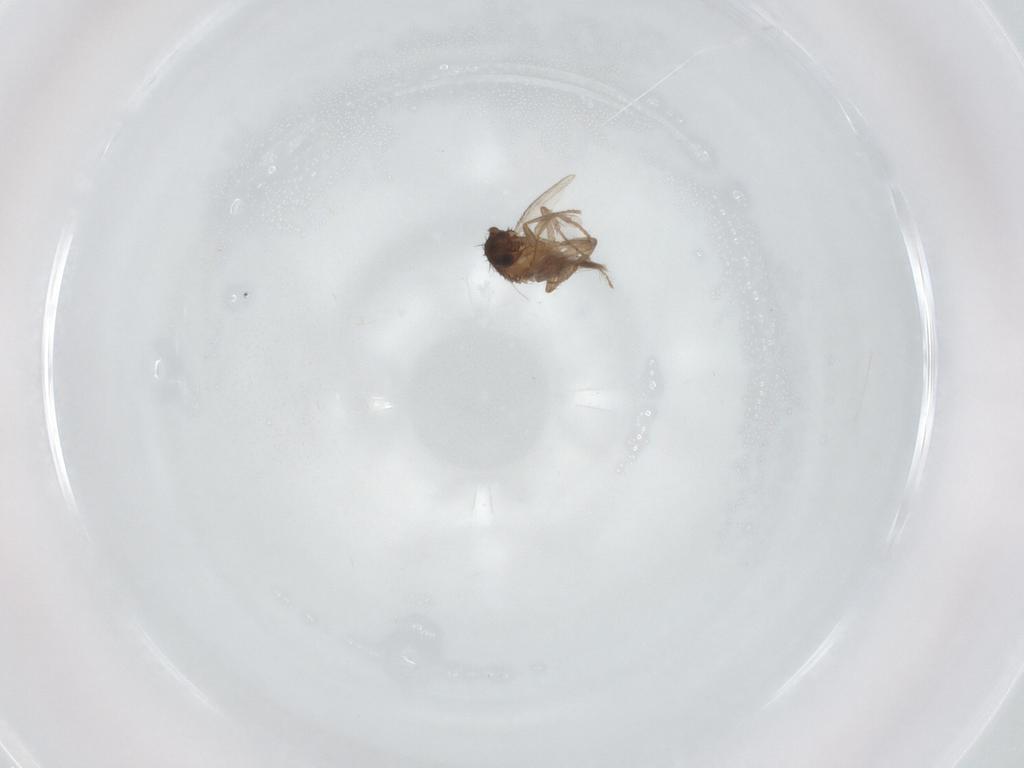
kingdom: Animalia
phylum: Arthropoda
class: Insecta
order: Diptera
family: Sphaeroceridae
